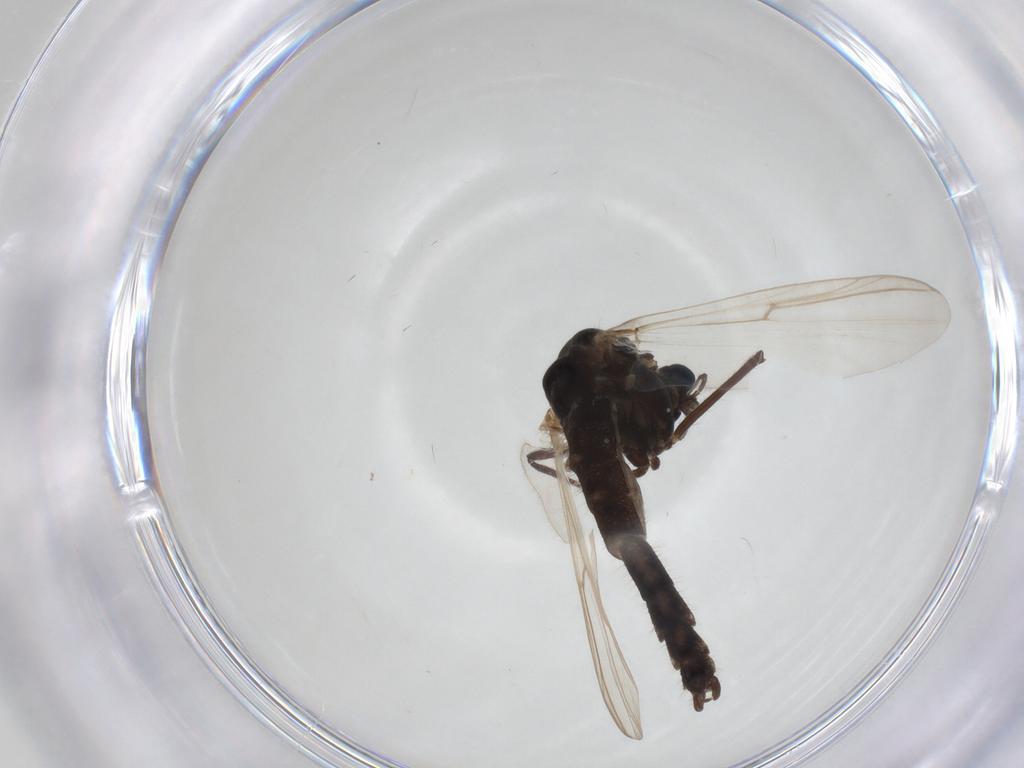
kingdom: Animalia
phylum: Arthropoda
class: Insecta
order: Diptera
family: Chironomidae
